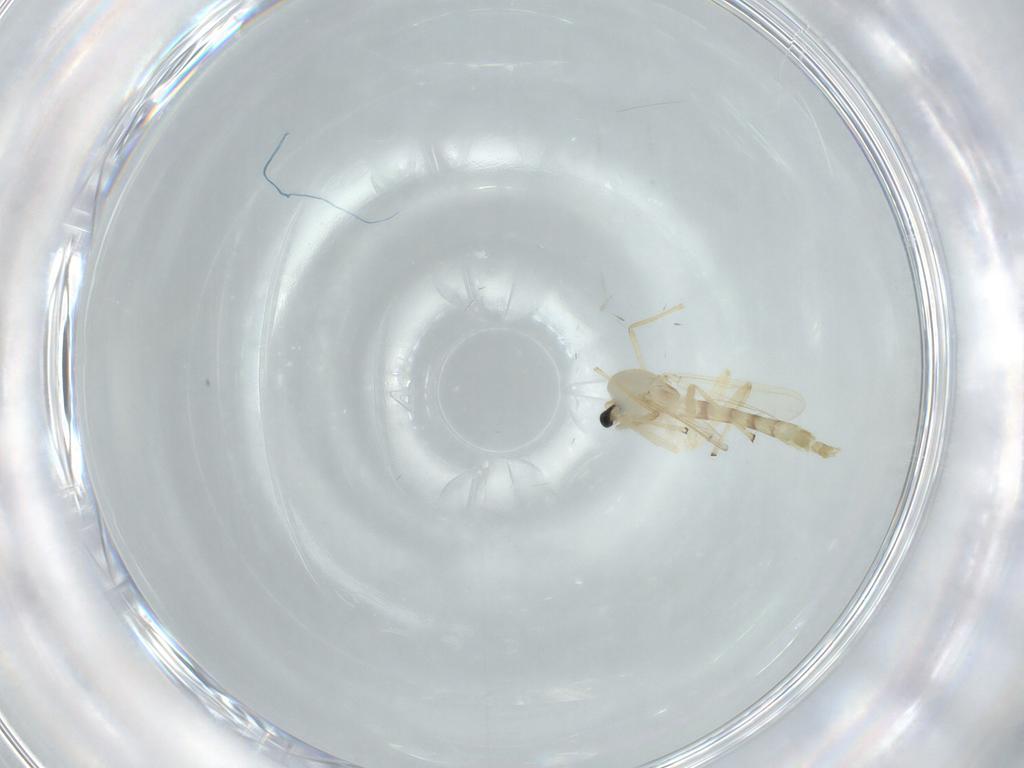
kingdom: Animalia
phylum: Arthropoda
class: Insecta
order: Diptera
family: Chironomidae
